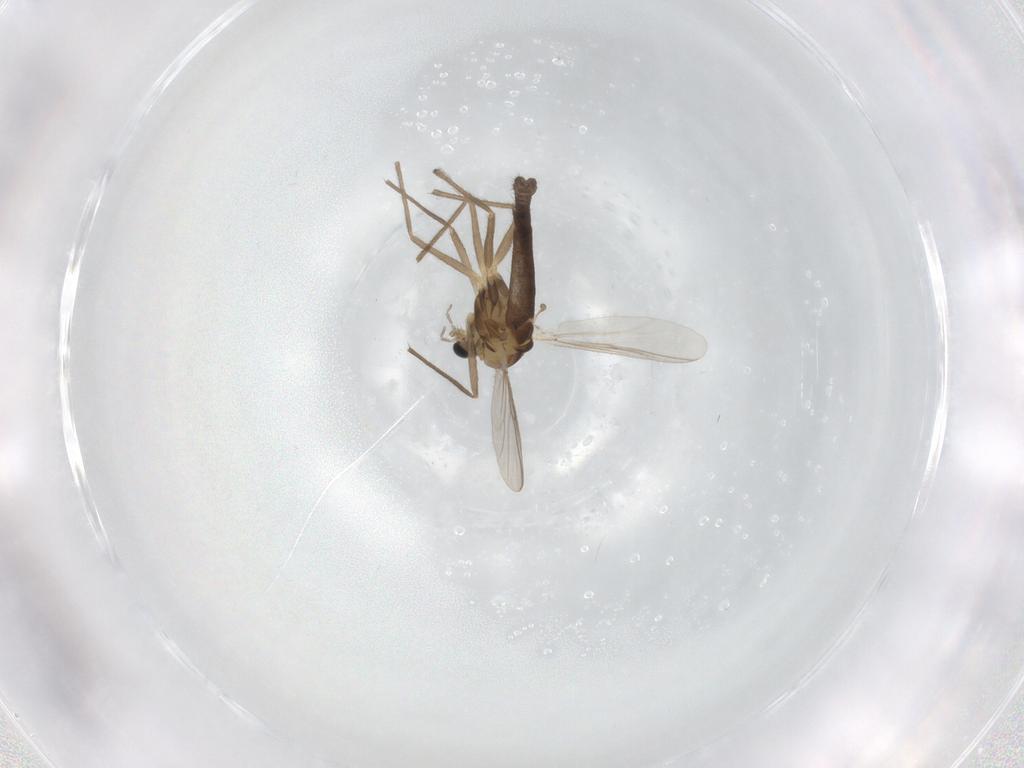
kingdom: Animalia
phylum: Arthropoda
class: Insecta
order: Diptera
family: Chironomidae
